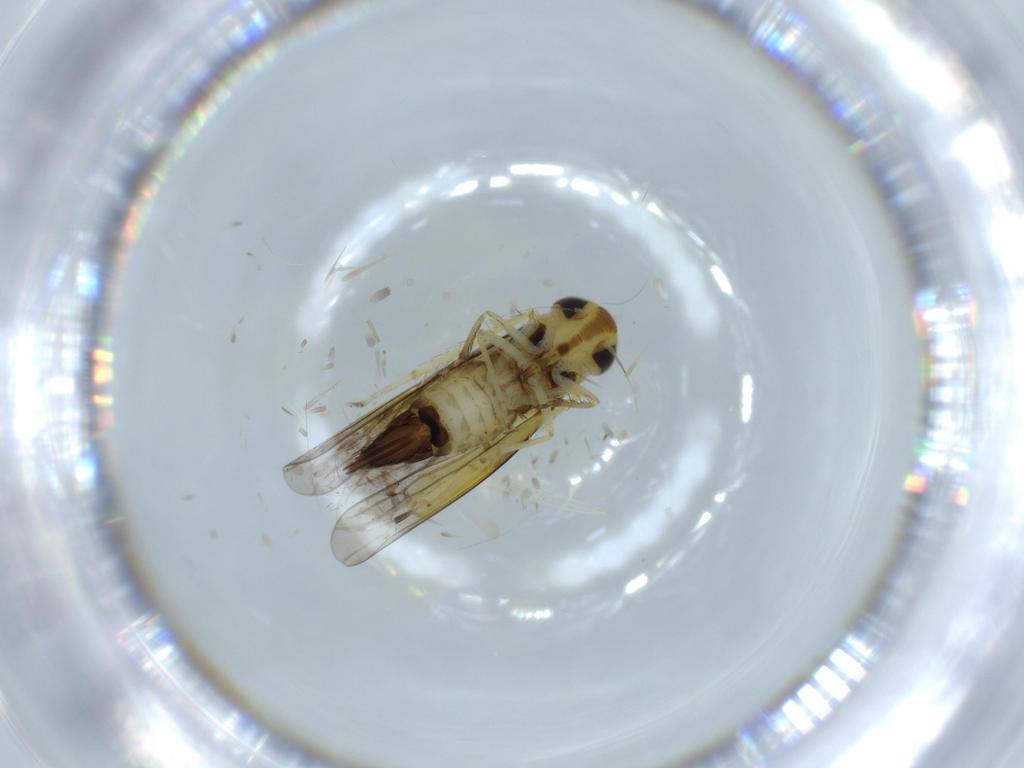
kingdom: Animalia
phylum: Arthropoda
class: Insecta
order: Hemiptera
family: Cicadellidae
